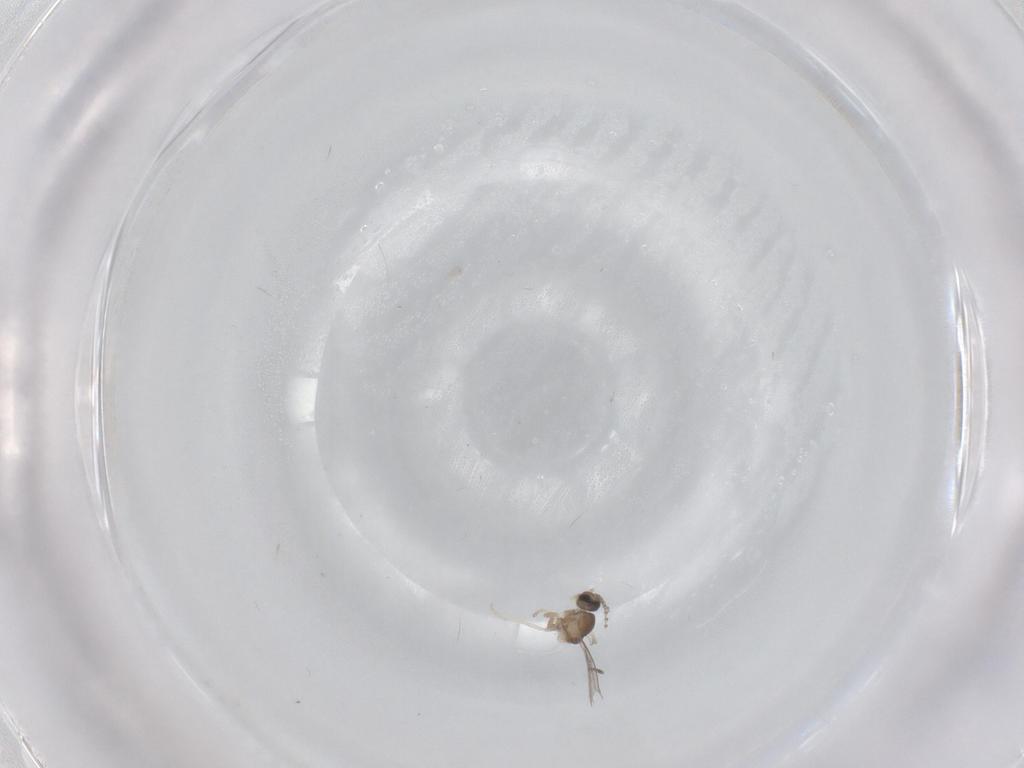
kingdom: Animalia
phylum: Arthropoda
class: Insecta
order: Diptera
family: Cecidomyiidae
